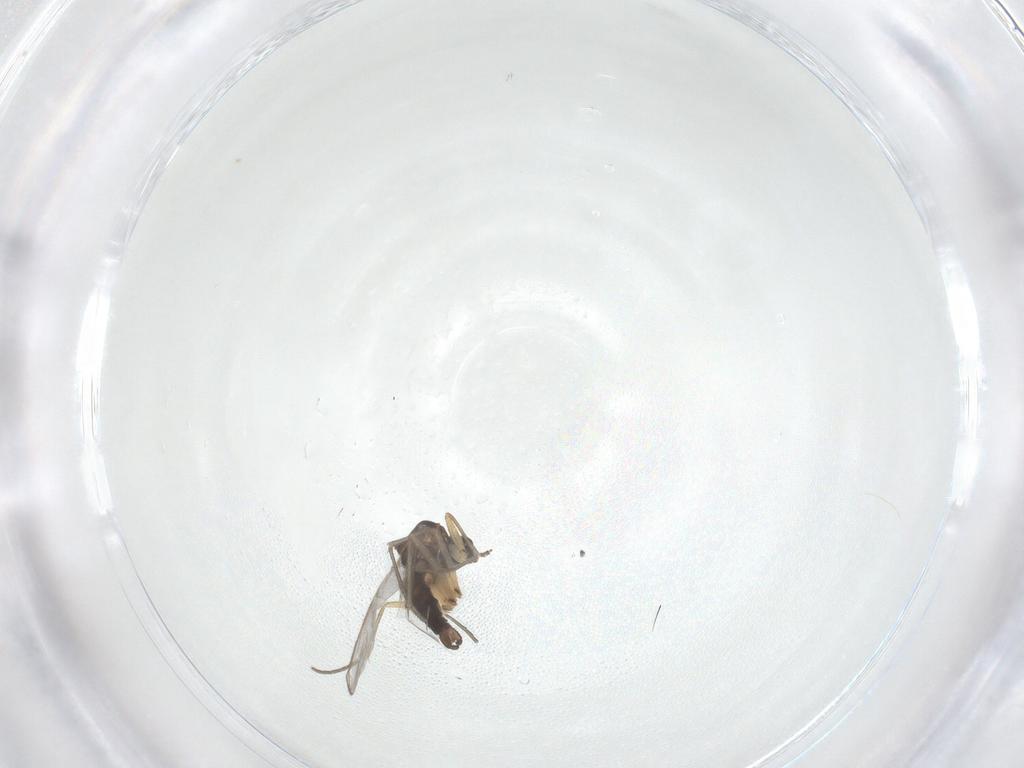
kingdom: Animalia
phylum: Arthropoda
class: Insecta
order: Diptera
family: Sciaridae
